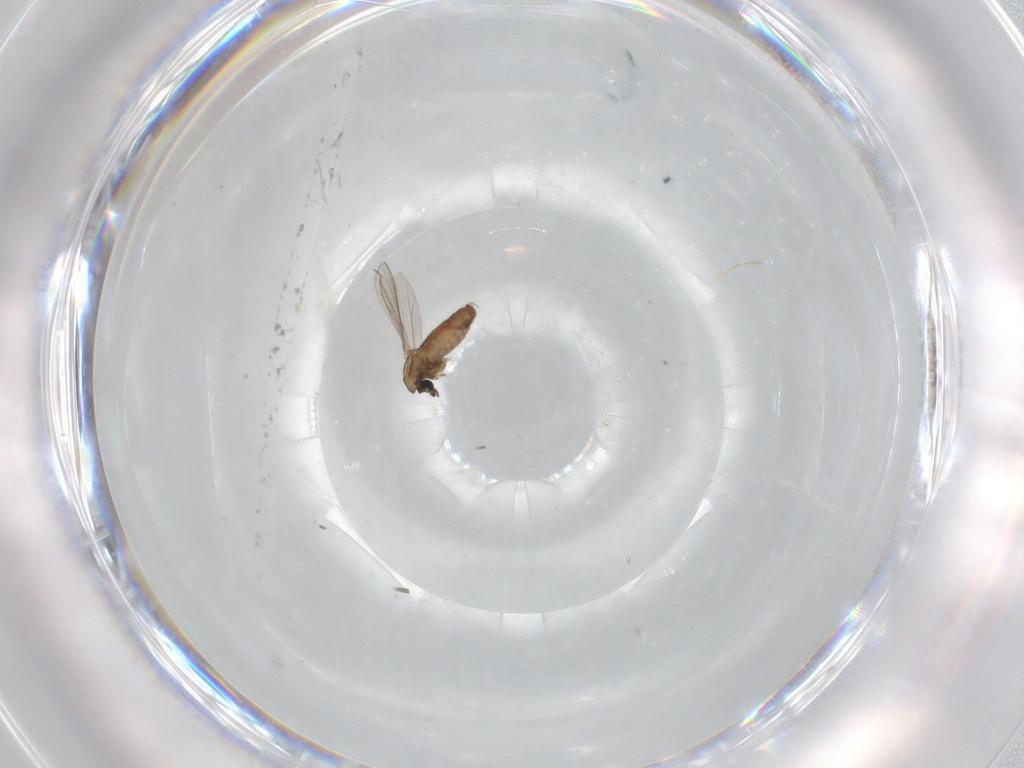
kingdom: Animalia
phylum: Arthropoda
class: Insecta
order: Diptera
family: Chironomidae
